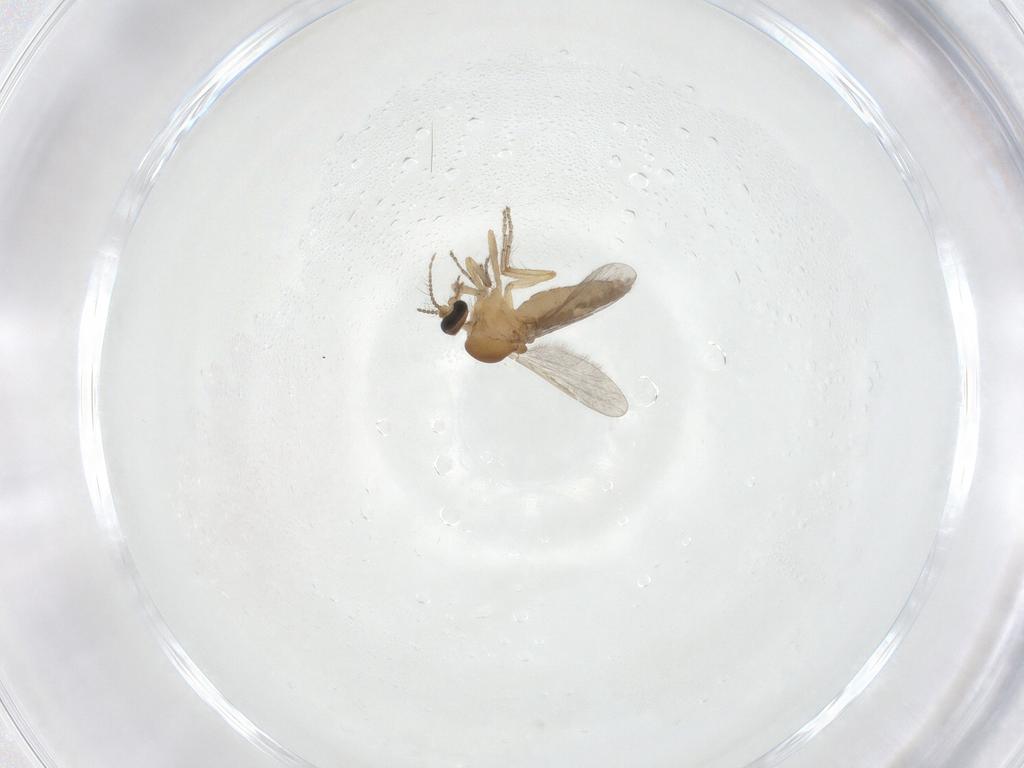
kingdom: Animalia
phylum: Arthropoda
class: Insecta
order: Diptera
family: Ceratopogonidae
